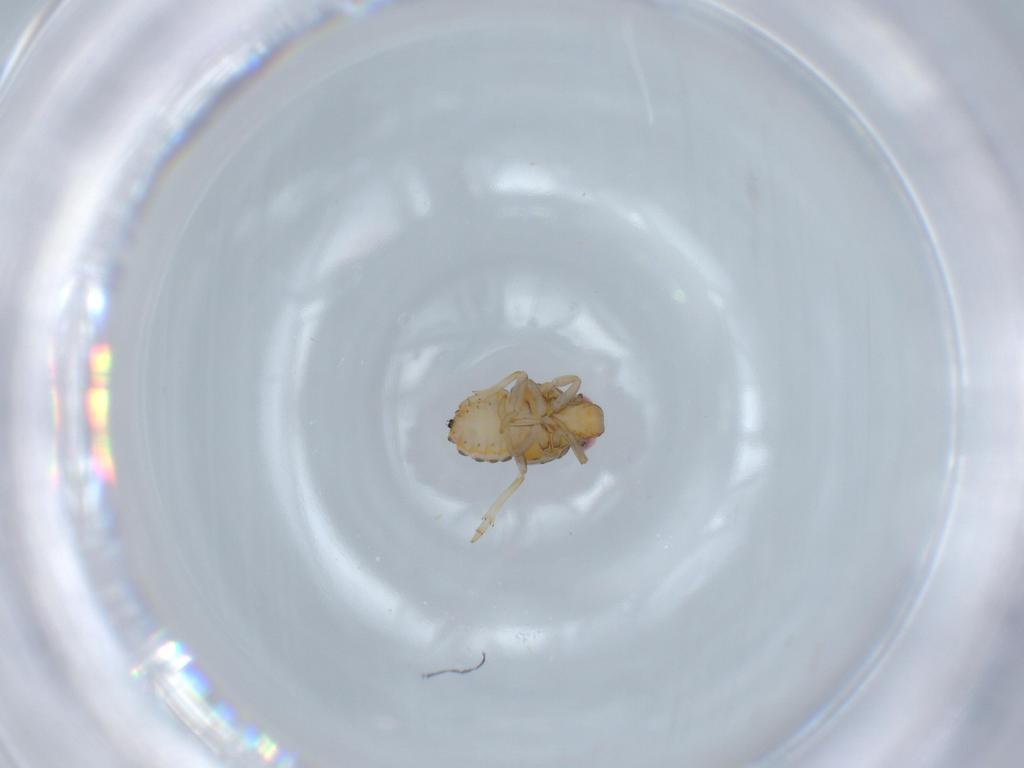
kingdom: Animalia
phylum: Arthropoda
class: Insecta
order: Hemiptera
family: Issidae
